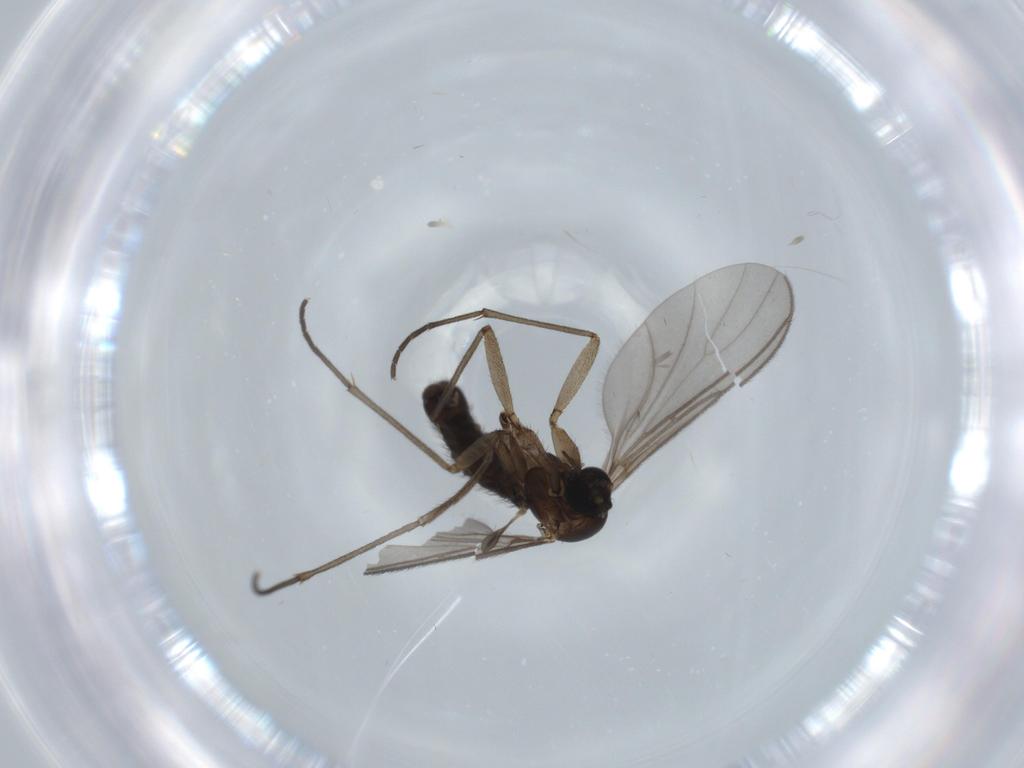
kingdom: Animalia
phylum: Arthropoda
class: Insecta
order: Diptera
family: Sciaridae
